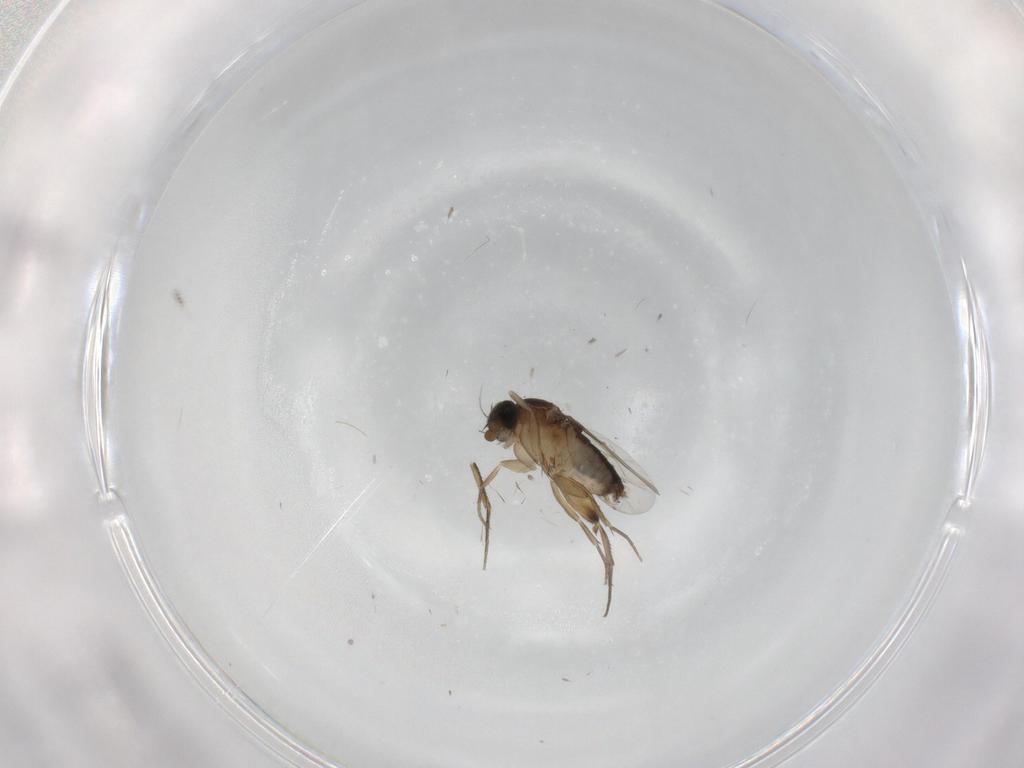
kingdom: Animalia
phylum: Arthropoda
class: Insecta
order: Diptera
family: Phoridae
